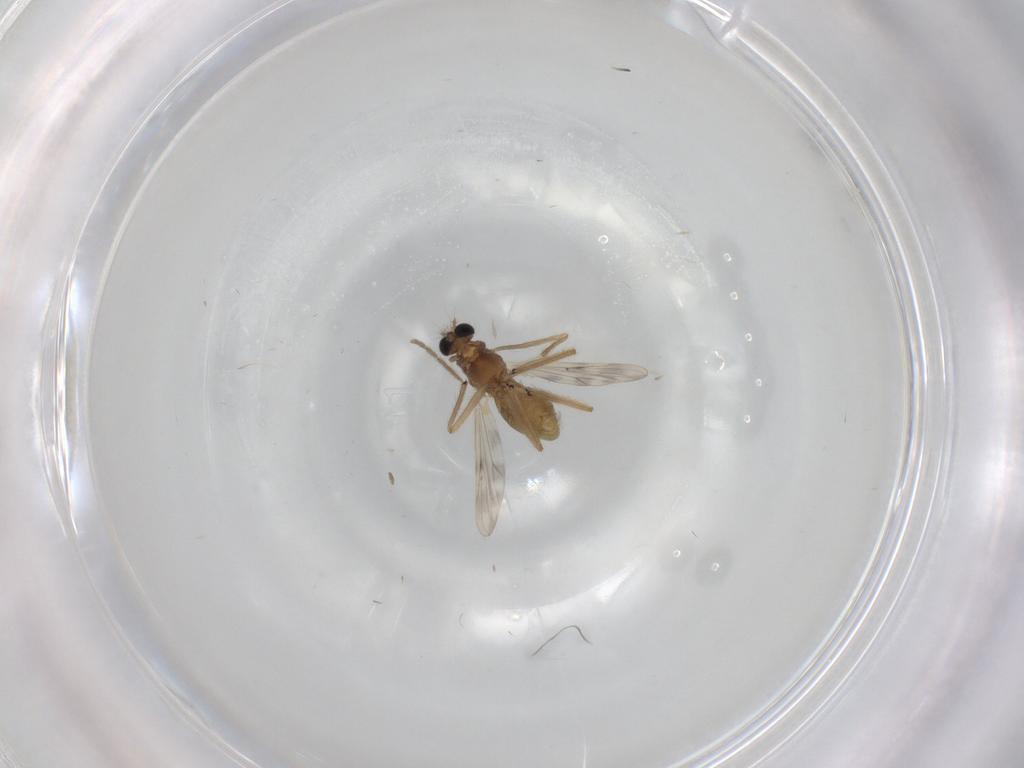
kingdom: Animalia
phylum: Arthropoda
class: Insecta
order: Diptera
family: Chironomidae
